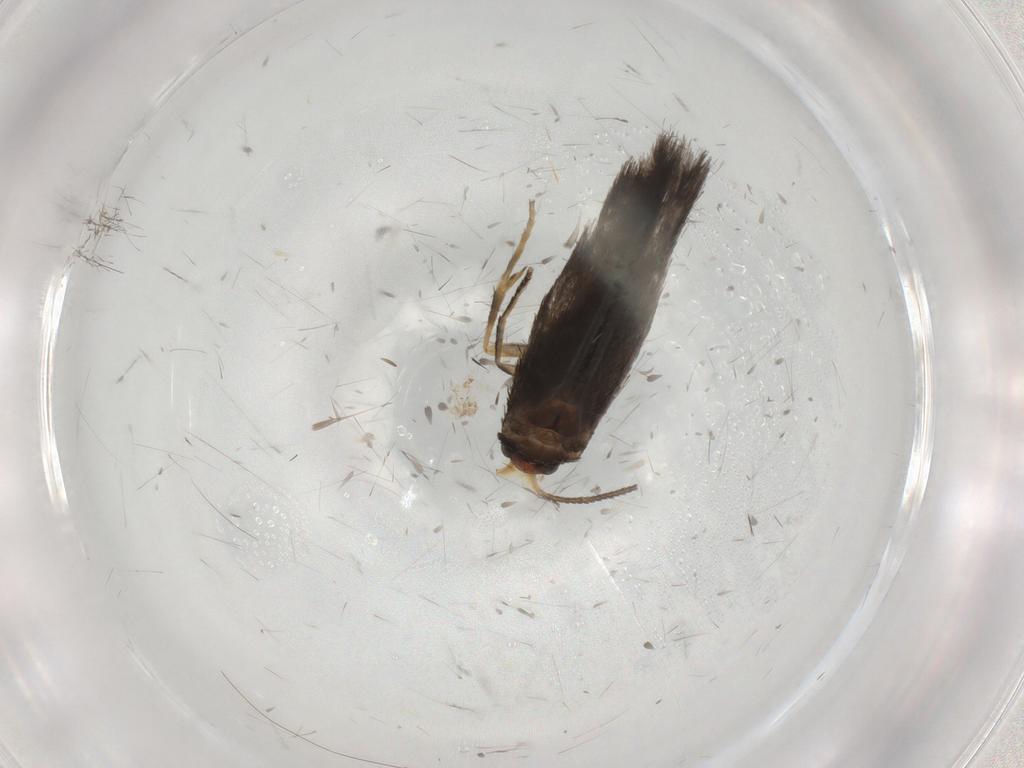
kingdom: Animalia
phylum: Arthropoda
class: Insecta
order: Lepidoptera
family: Nepticulidae
